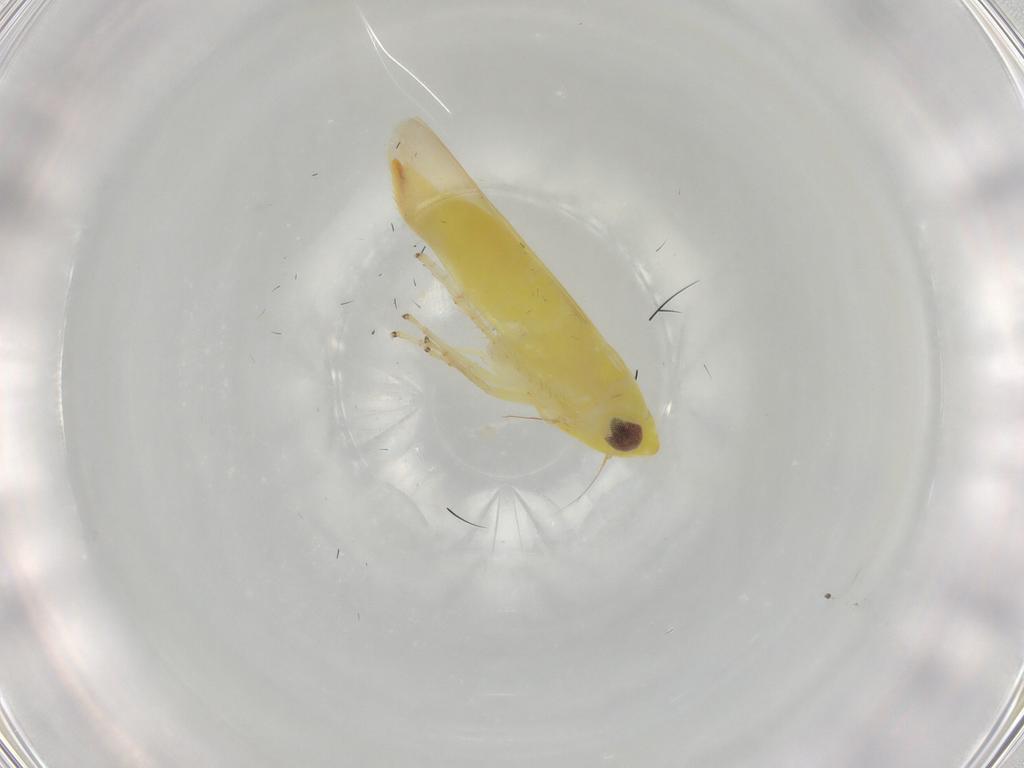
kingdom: Animalia
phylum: Arthropoda
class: Insecta
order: Hemiptera
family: Cicadellidae
